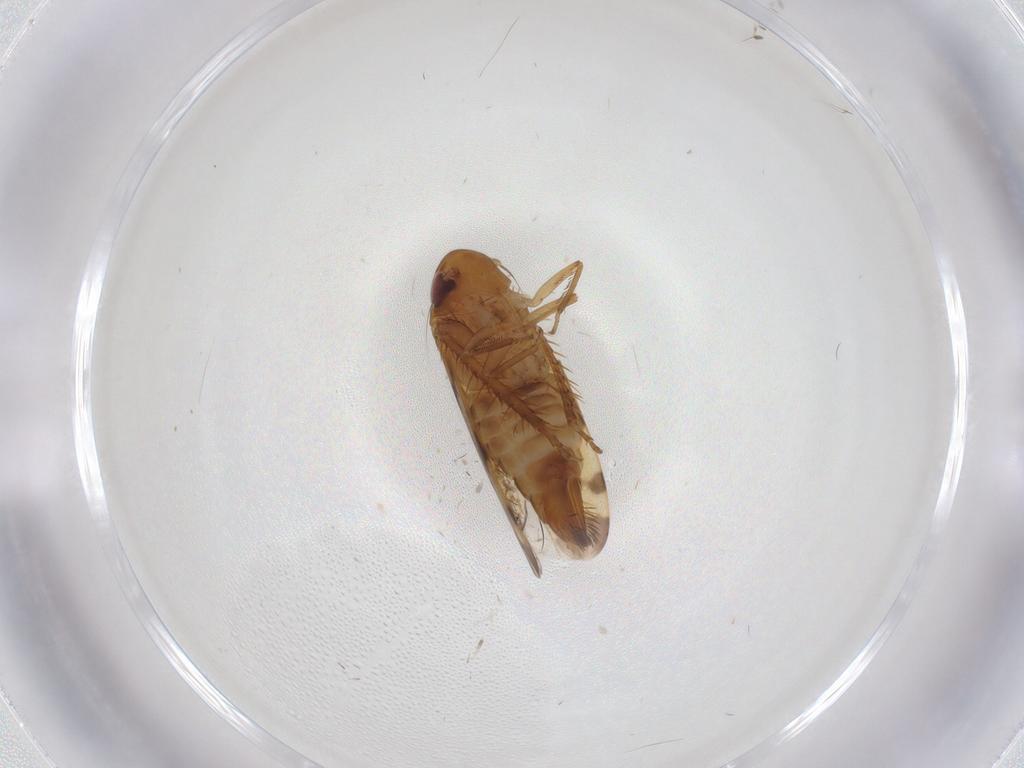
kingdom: Animalia
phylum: Arthropoda
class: Insecta
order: Hemiptera
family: Cicadellidae
